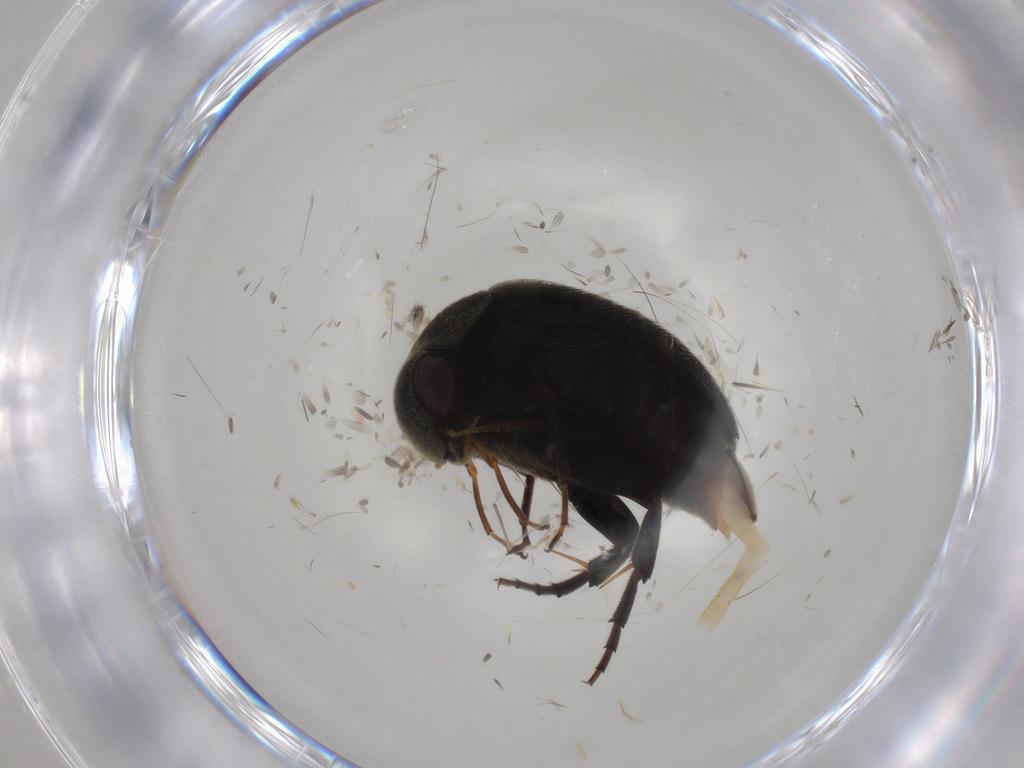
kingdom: Animalia
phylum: Arthropoda
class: Insecta
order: Coleoptera
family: Mordellidae
